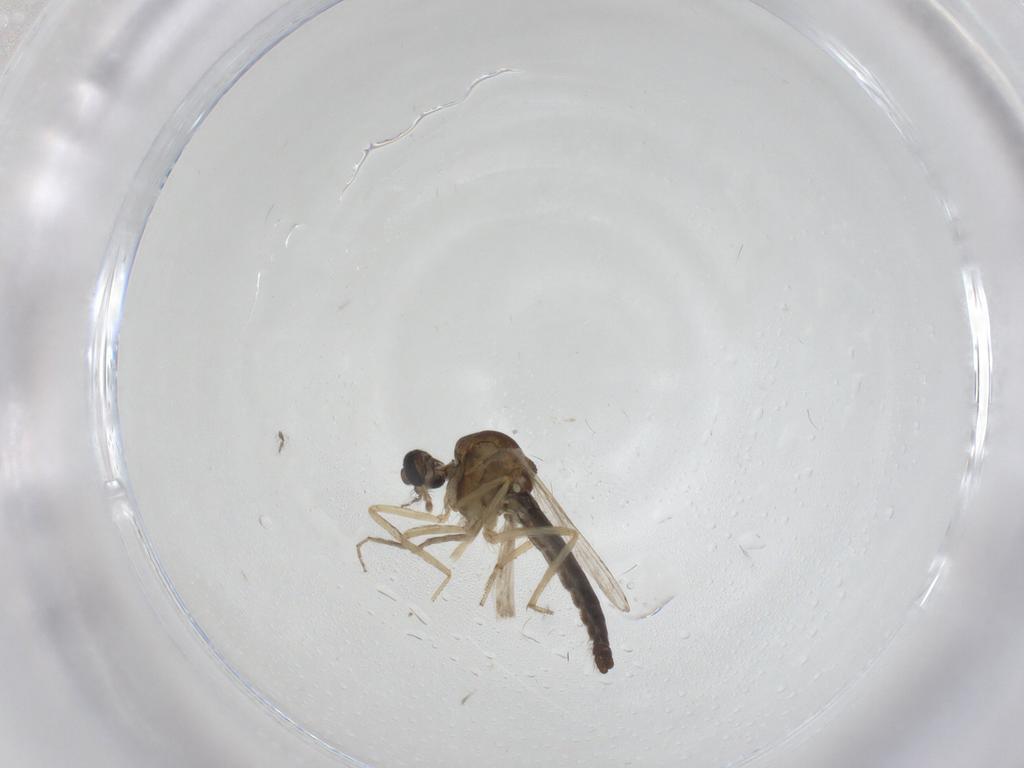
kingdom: Animalia
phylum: Arthropoda
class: Insecta
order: Diptera
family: Ceratopogonidae
